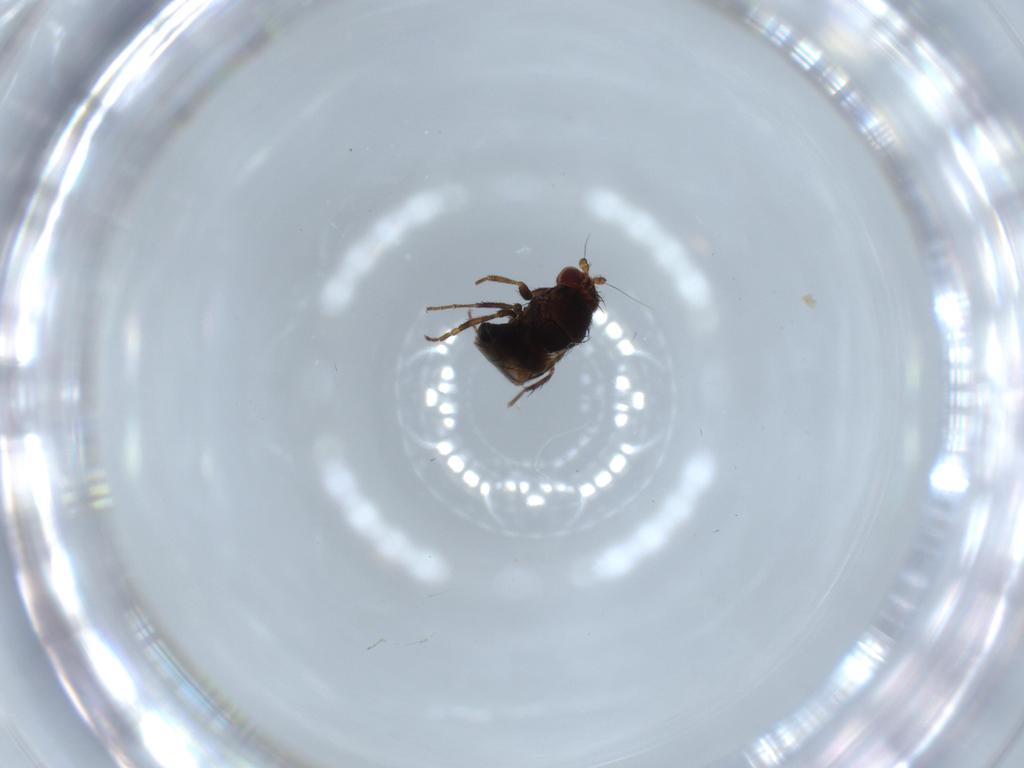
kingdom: Animalia
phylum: Arthropoda
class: Insecta
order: Diptera
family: Sphaeroceridae
